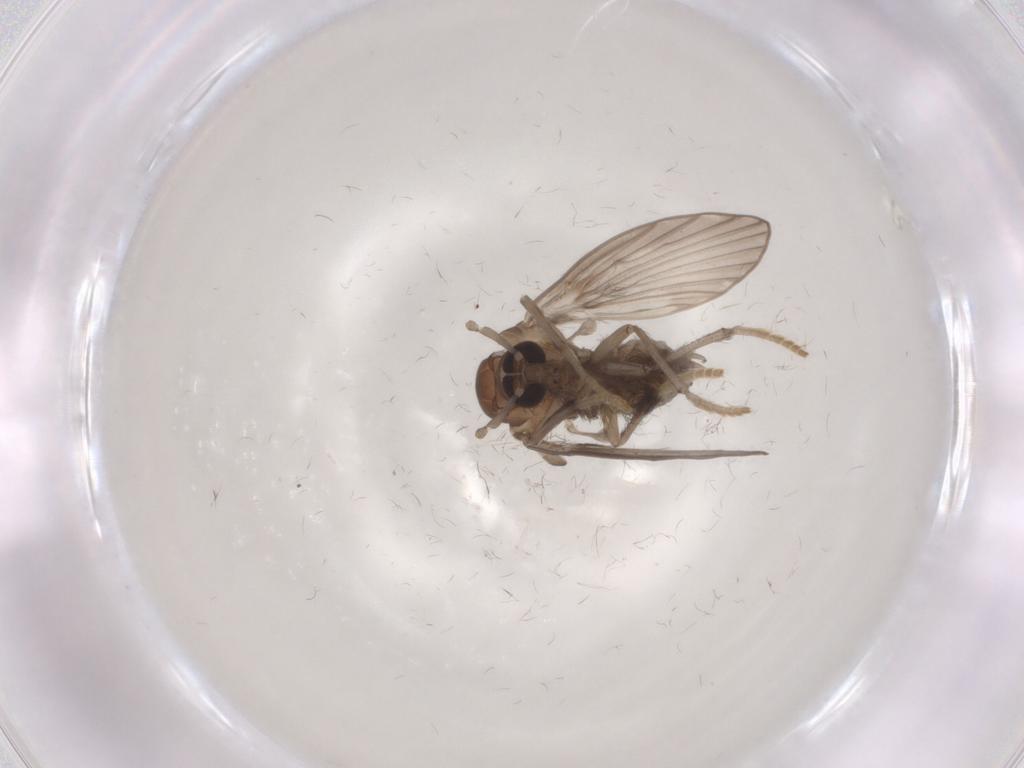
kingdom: Animalia
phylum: Arthropoda
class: Insecta
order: Diptera
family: Psychodidae
